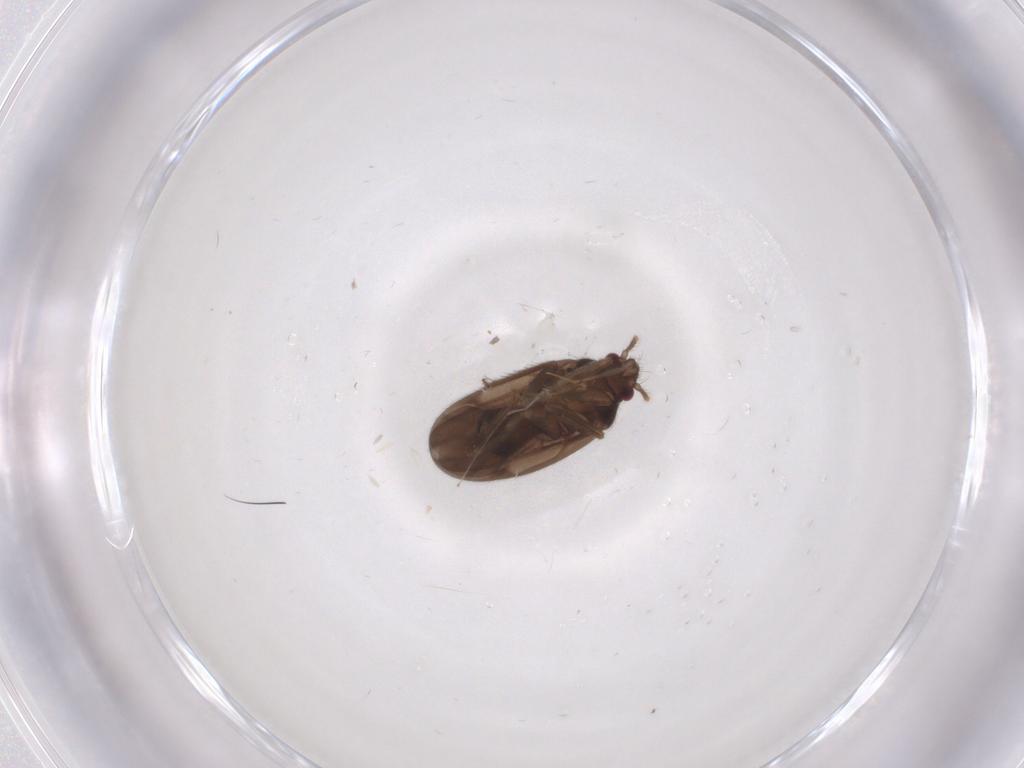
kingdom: Animalia
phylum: Arthropoda
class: Insecta
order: Hemiptera
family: Ceratocombidae
